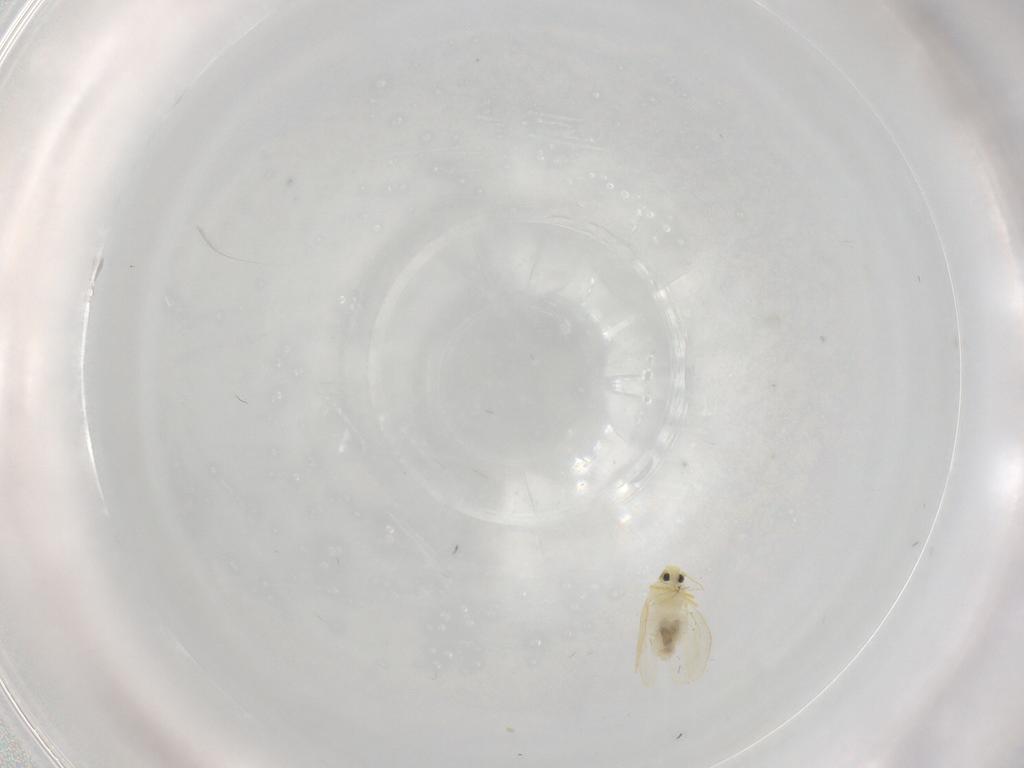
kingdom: Animalia
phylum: Arthropoda
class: Insecta
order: Hemiptera
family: Aleyrodidae
